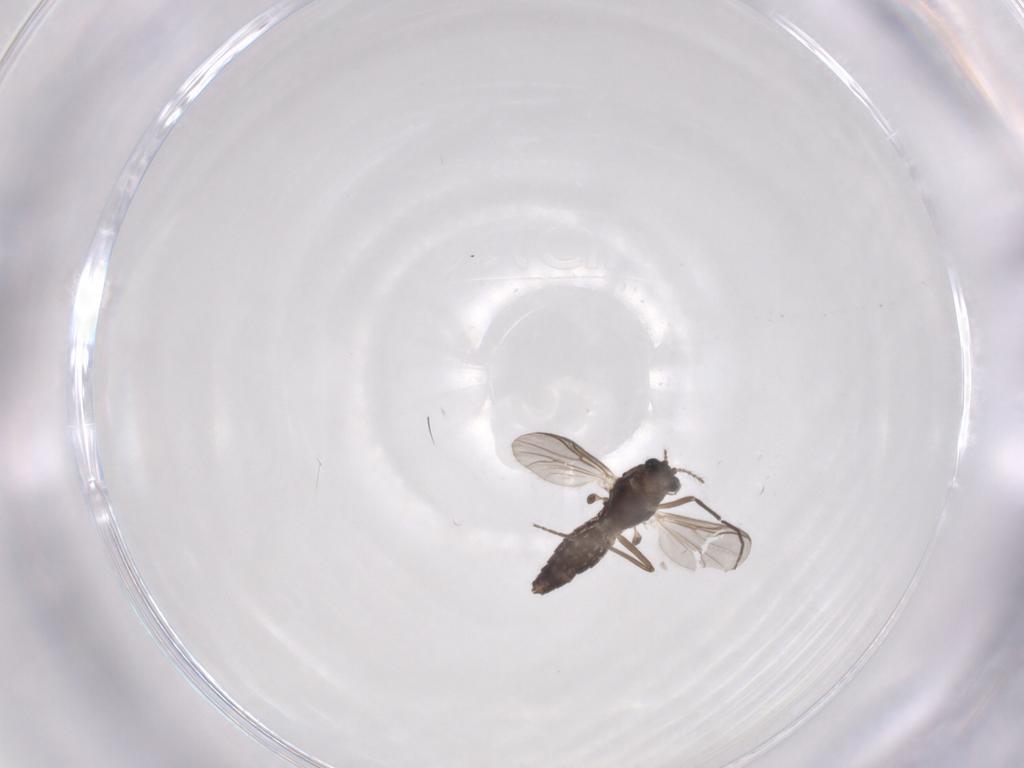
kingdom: Animalia
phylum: Arthropoda
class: Insecta
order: Diptera
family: Chironomidae
